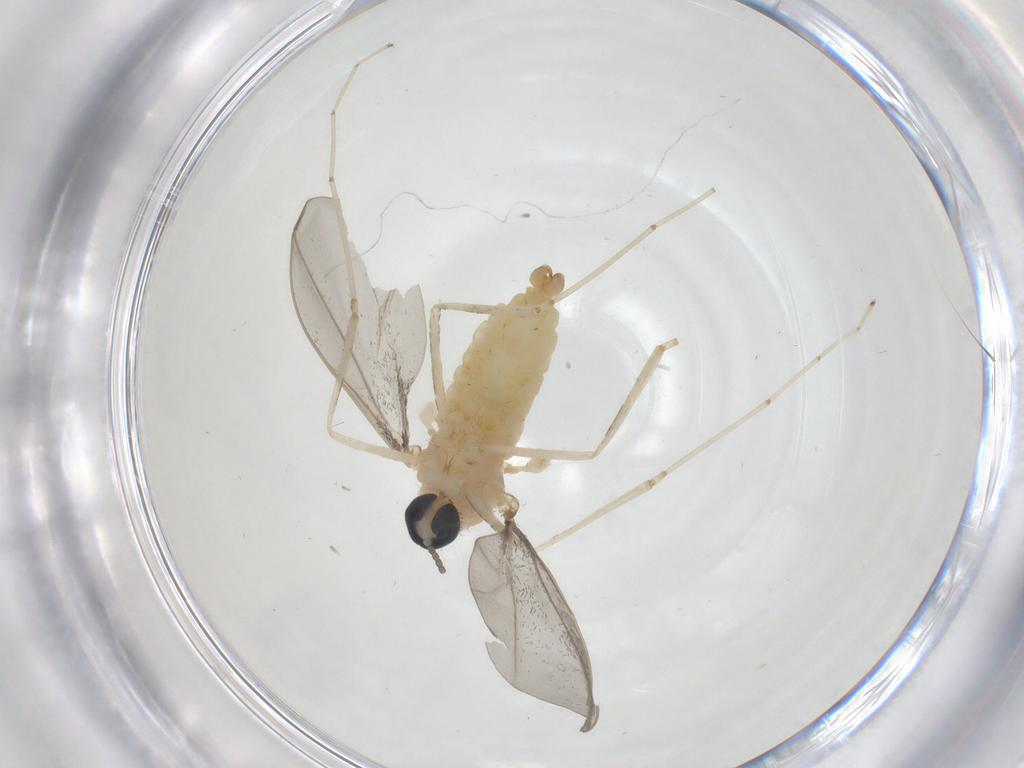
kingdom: Animalia
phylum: Arthropoda
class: Insecta
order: Diptera
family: Cecidomyiidae
